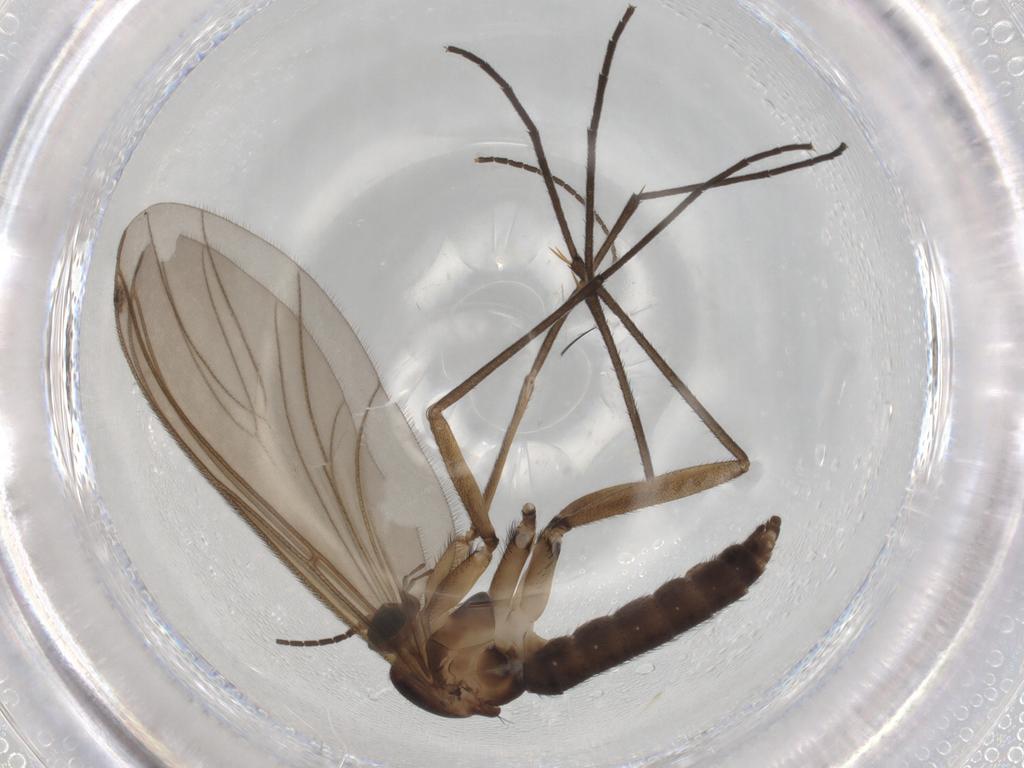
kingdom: Animalia
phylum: Arthropoda
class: Insecta
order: Diptera
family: Sciaridae
